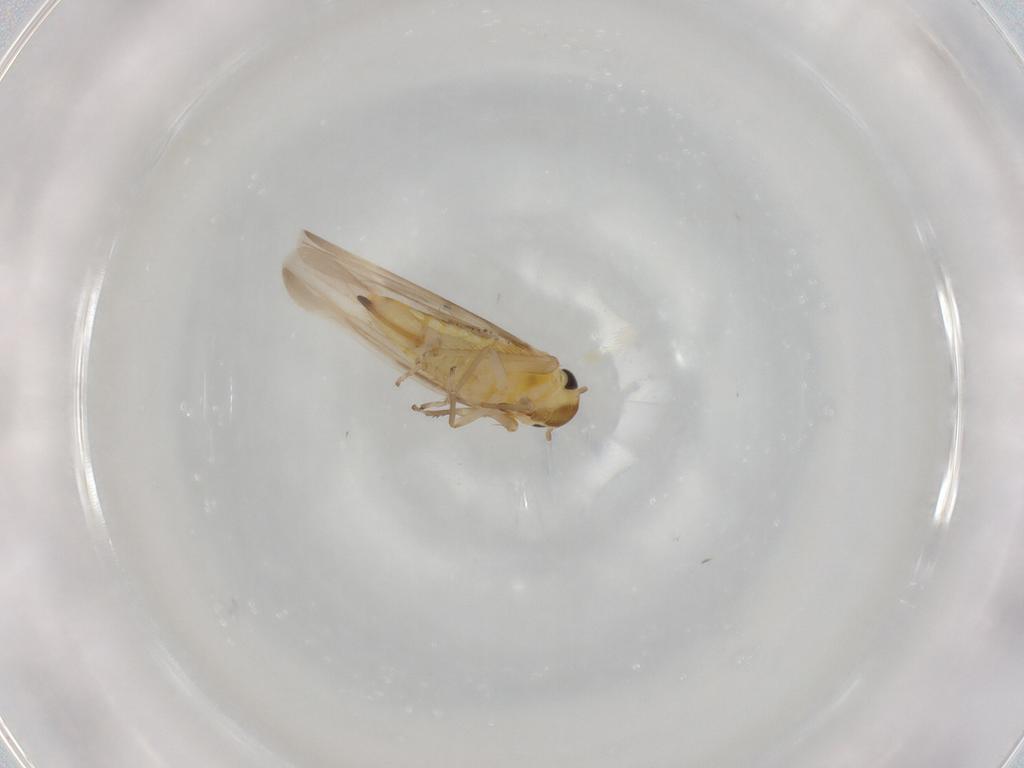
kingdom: Animalia
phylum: Arthropoda
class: Insecta
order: Hemiptera
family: Cicadellidae
